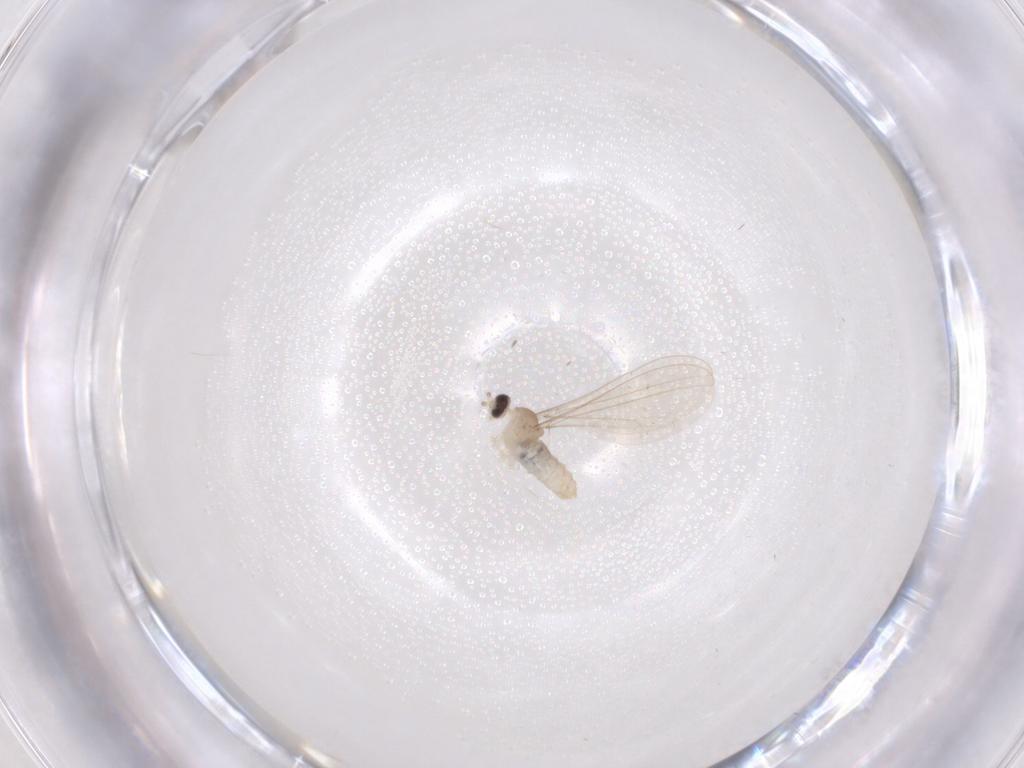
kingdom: Animalia
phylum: Arthropoda
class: Insecta
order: Diptera
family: Cecidomyiidae
